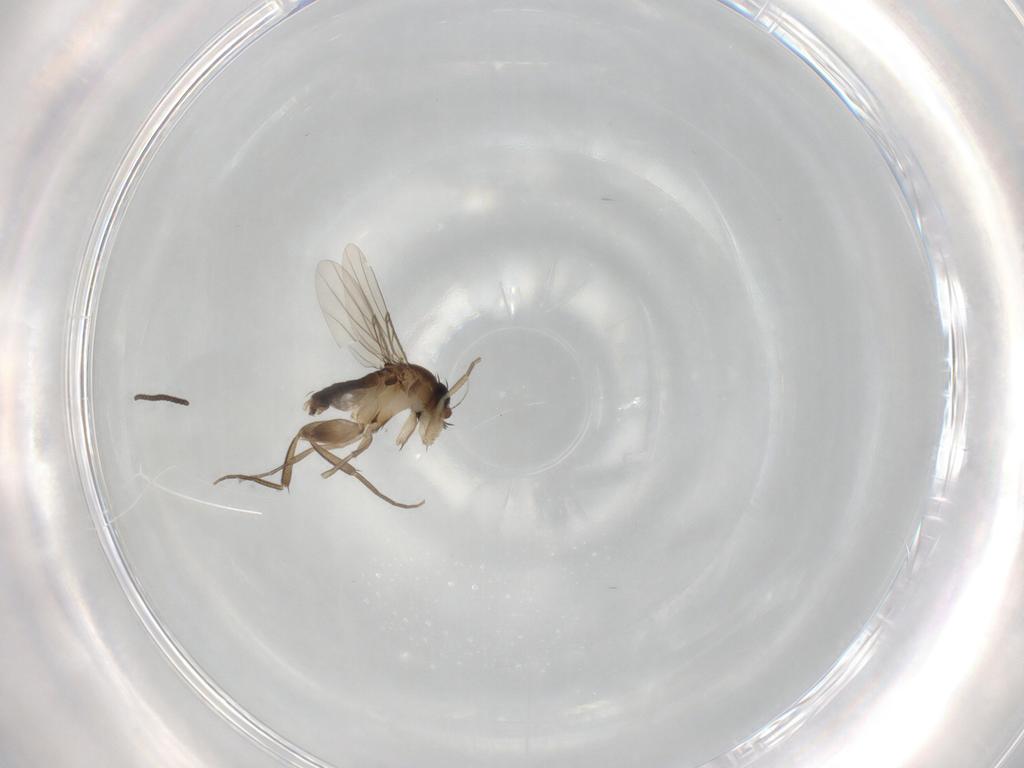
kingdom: Animalia
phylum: Arthropoda
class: Insecta
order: Diptera
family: Phoridae
